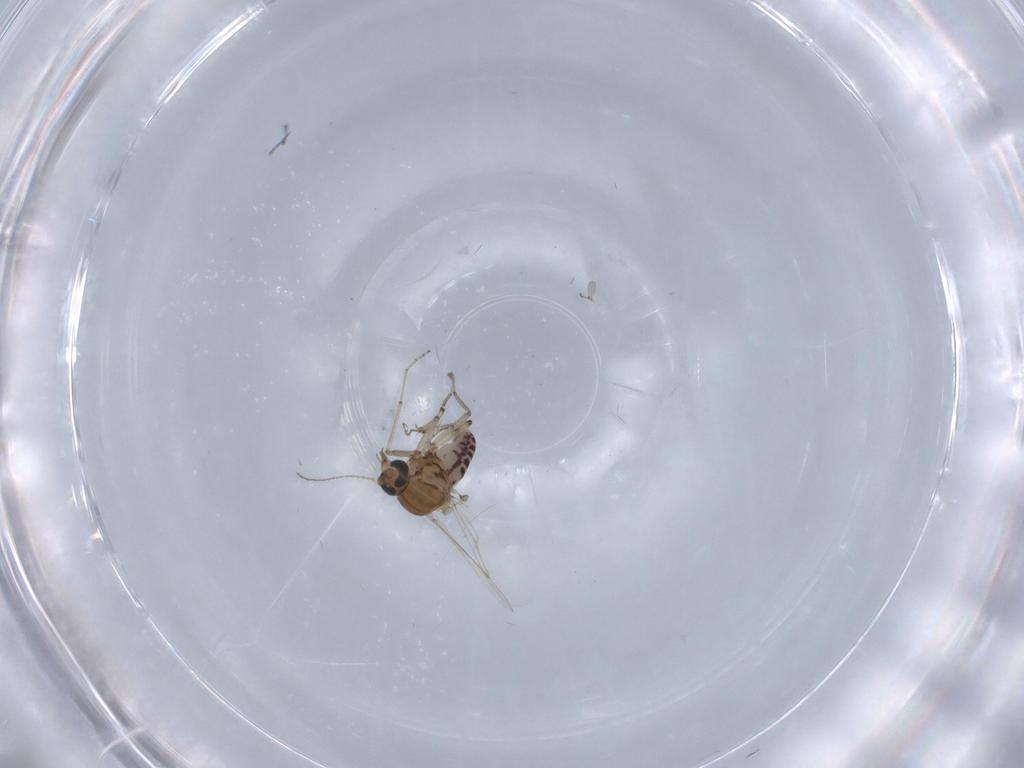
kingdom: Animalia
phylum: Arthropoda
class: Insecta
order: Diptera
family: Phoridae
